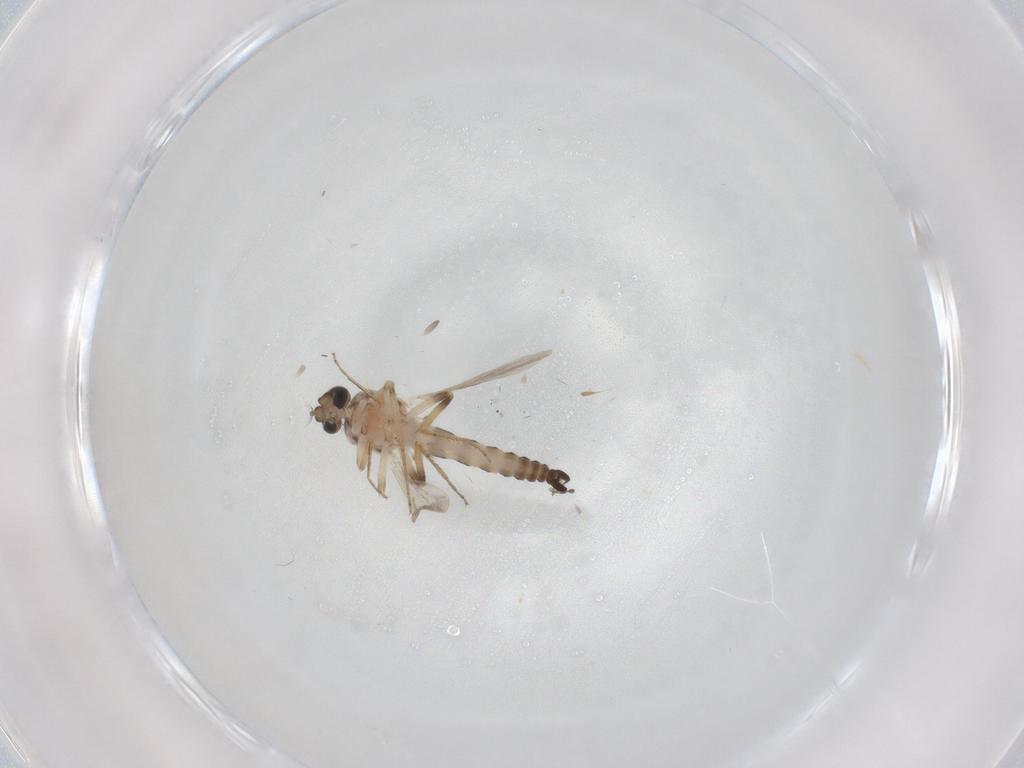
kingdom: Animalia
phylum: Arthropoda
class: Insecta
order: Diptera
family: Ceratopogonidae
